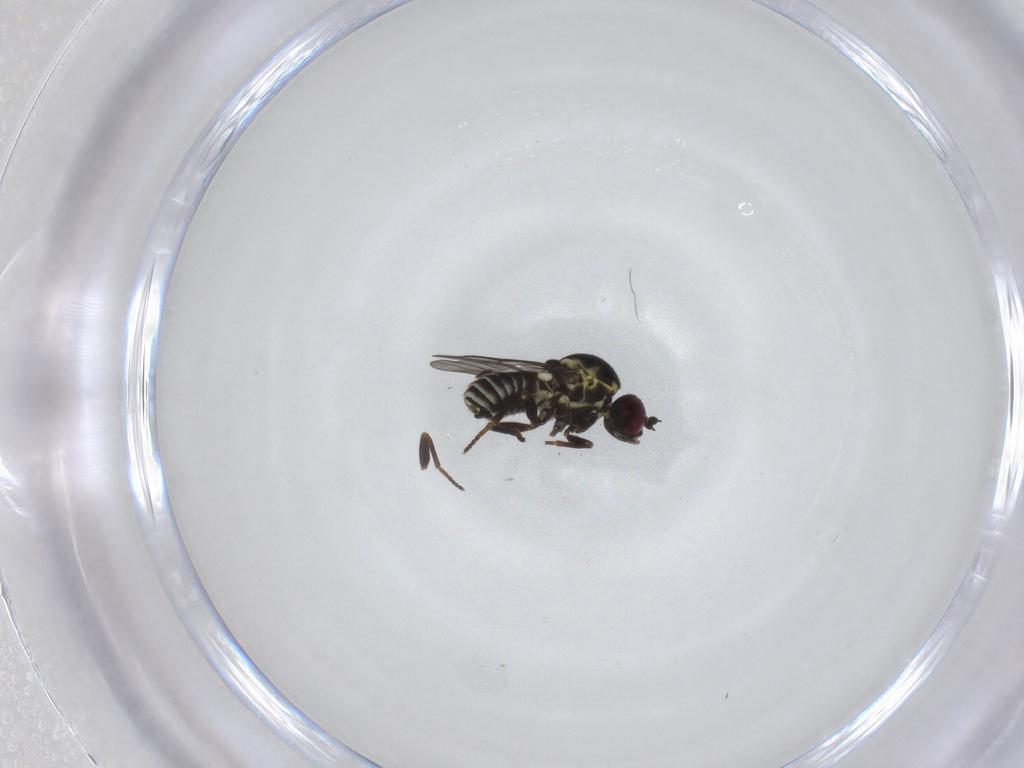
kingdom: Animalia
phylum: Arthropoda
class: Insecta
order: Diptera
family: Bombyliidae
